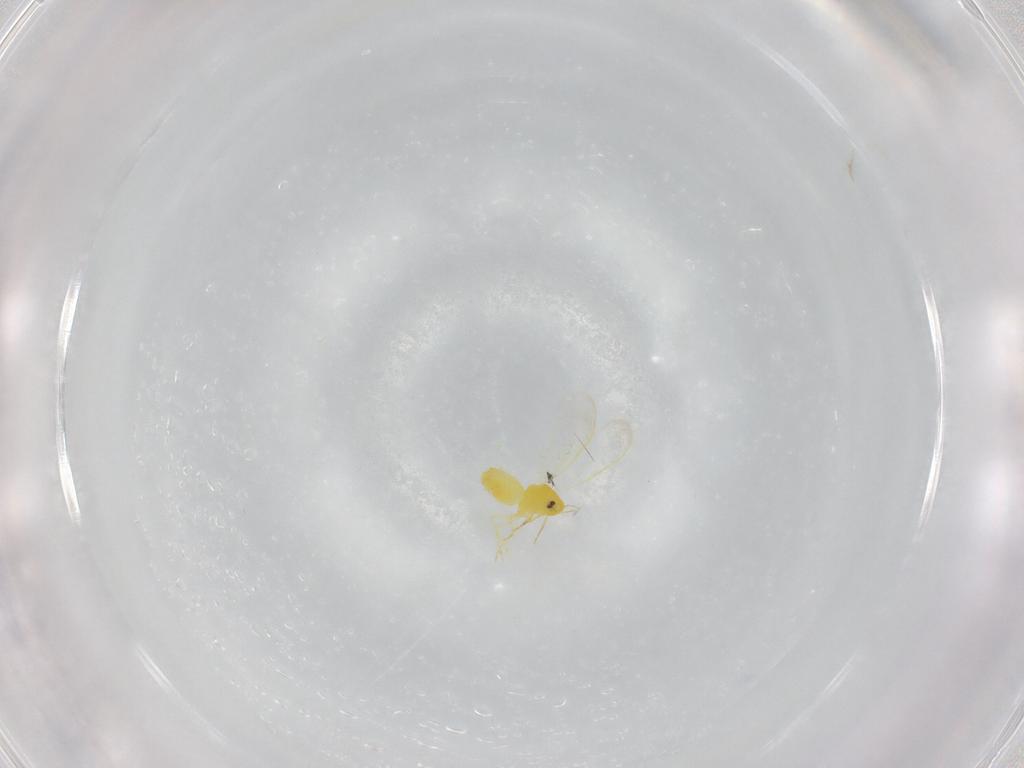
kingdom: Animalia
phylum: Arthropoda
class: Insecta
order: Hemiptera
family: Aleyrodidae
